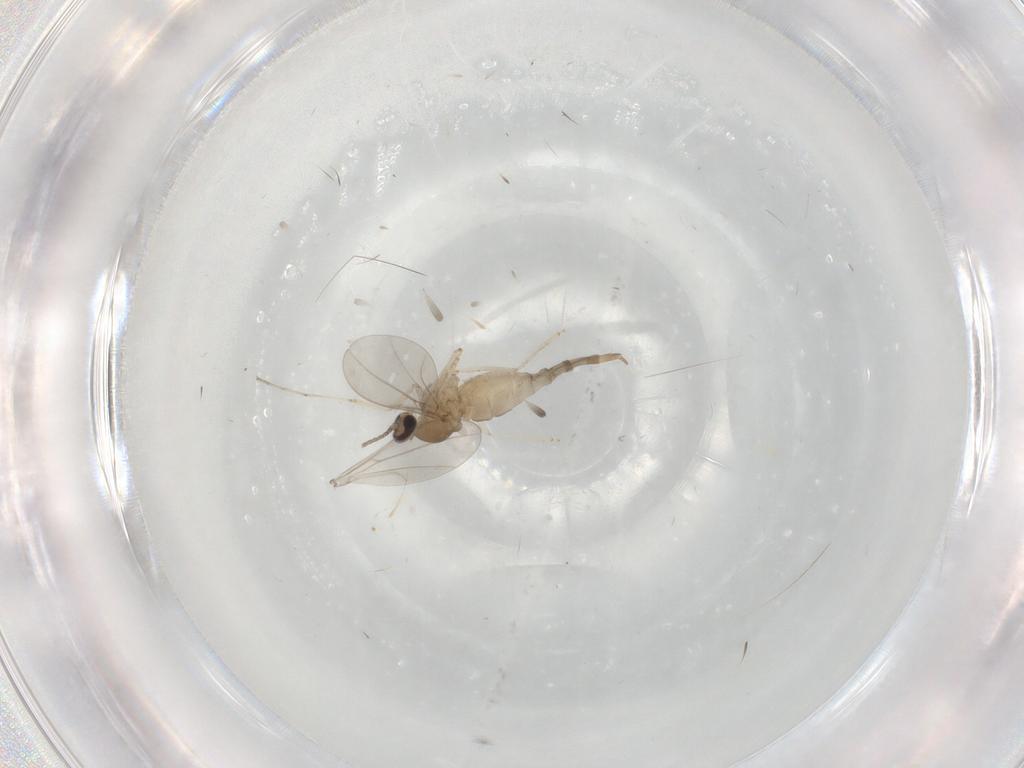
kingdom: Animalia
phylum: Arthropoda
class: Insecta
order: Diptera
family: Cecidomyiidae
